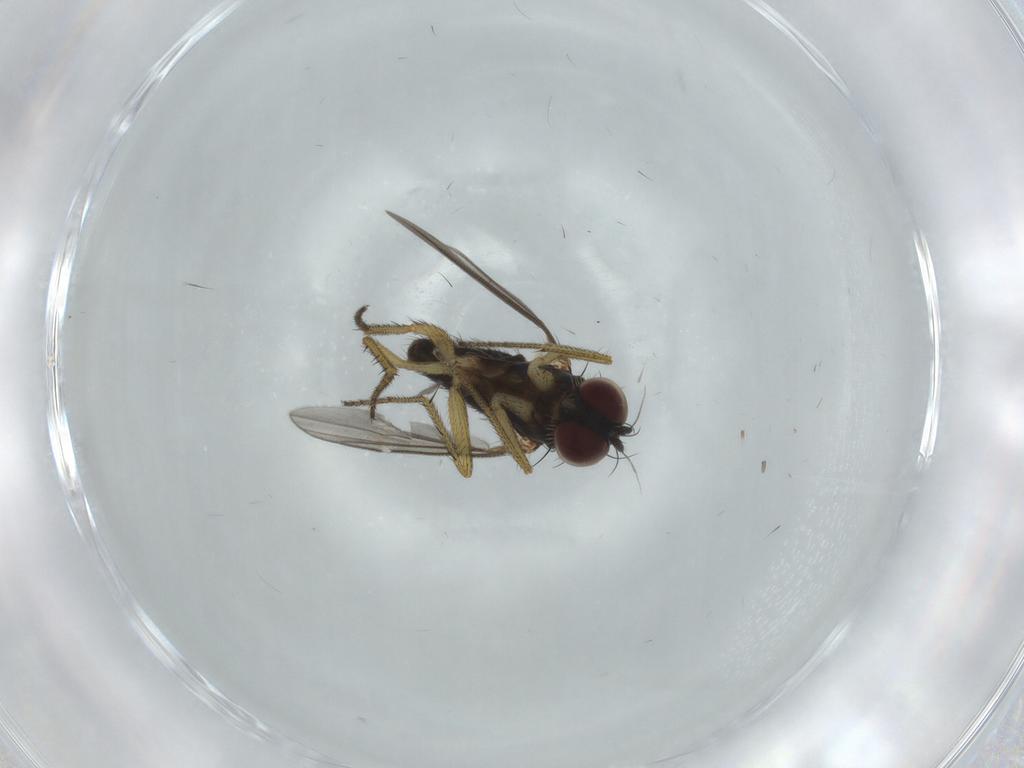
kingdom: Animalia
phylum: Arthropoda
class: Insecta
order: Diptera
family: Dolichopodidae
